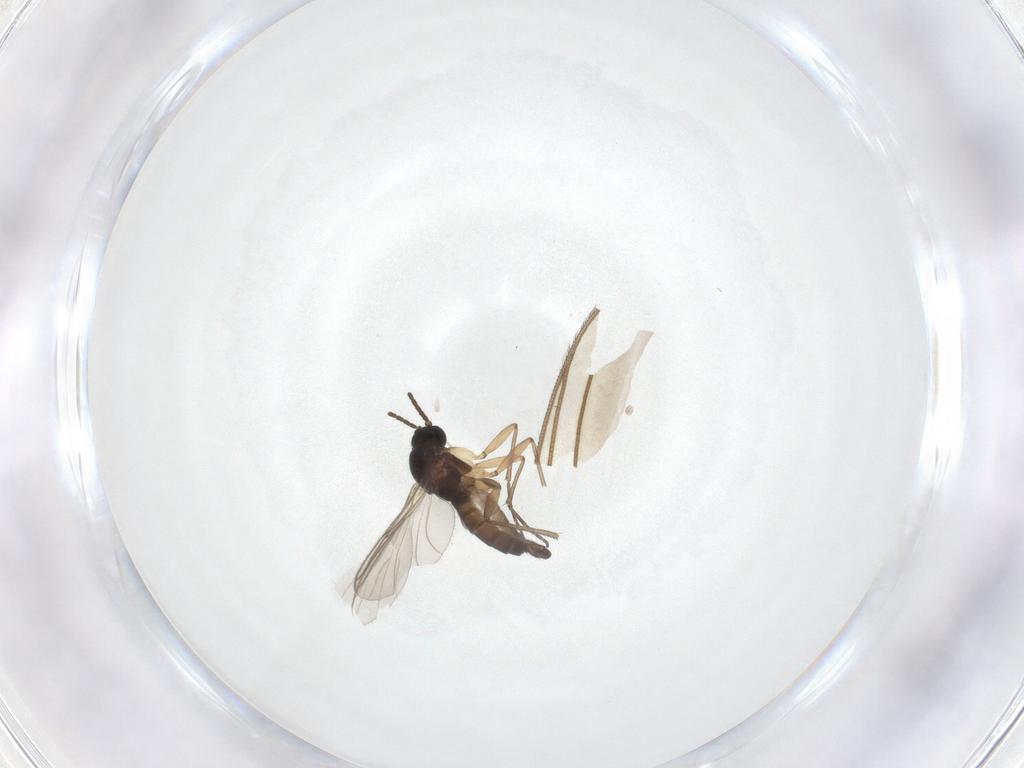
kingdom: Animalia
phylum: Arthropoda
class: Insecta
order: Diptera
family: Sciaridae
